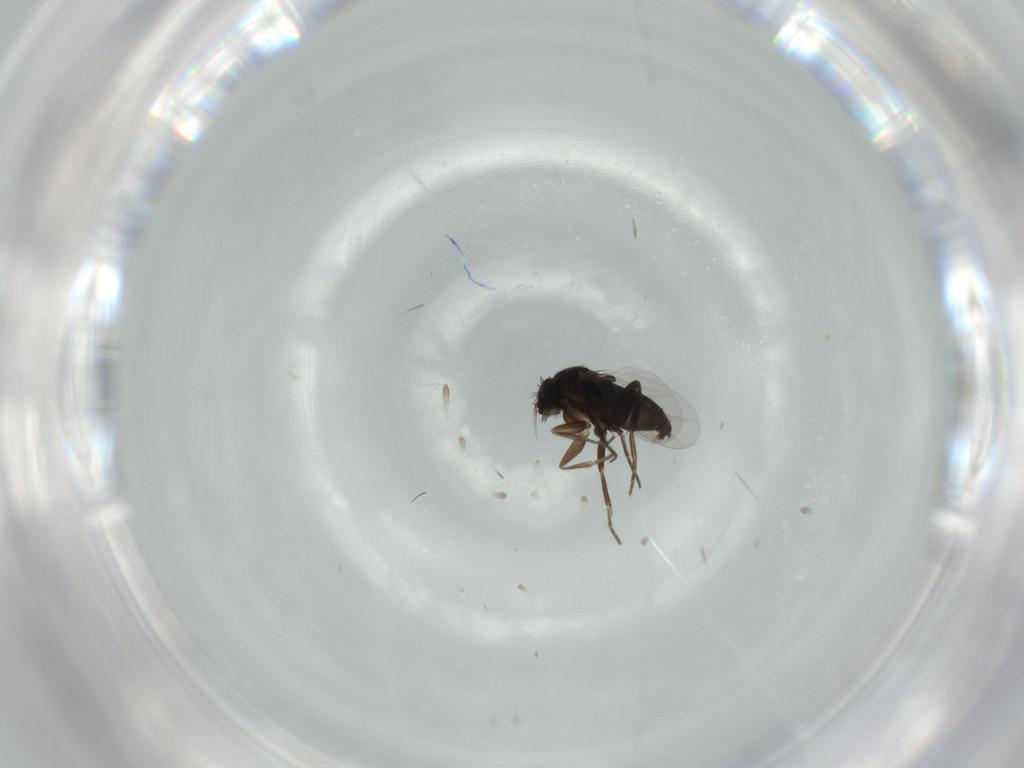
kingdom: Animalia
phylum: Arthropoda
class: Insecta
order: Diptera
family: Phoridae
